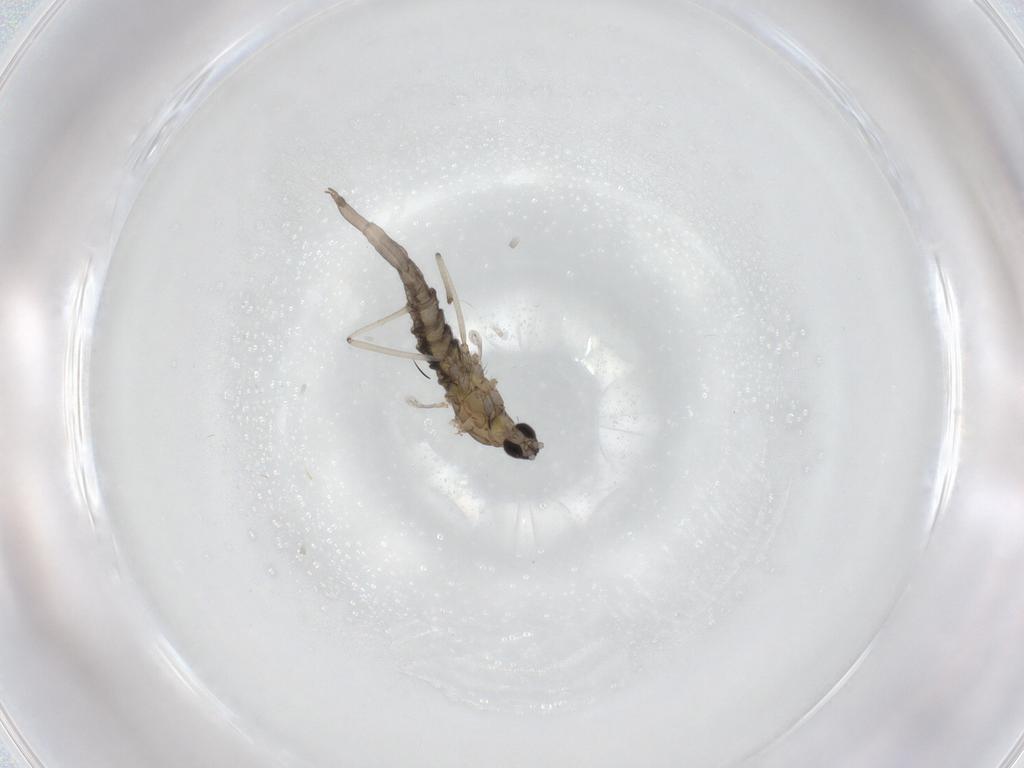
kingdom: Animalia
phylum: Arthropoda
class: Insecta
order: Diptera
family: Cecidomyiidae
